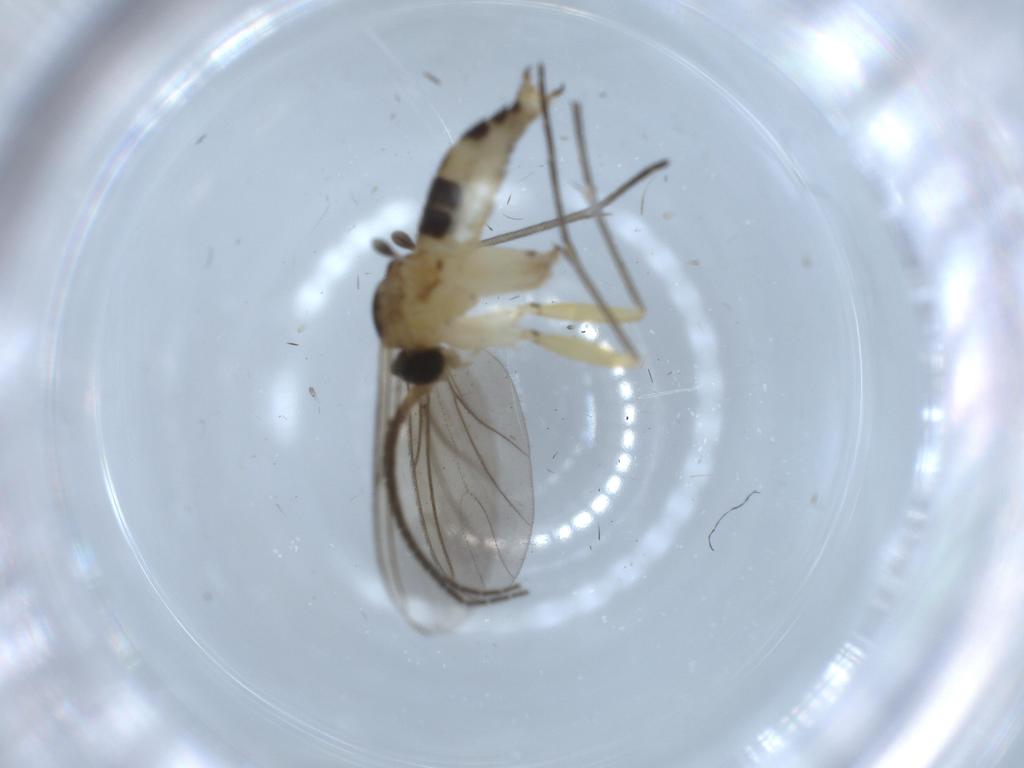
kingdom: Animalia
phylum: Arthropoda
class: Insecta
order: Diptera
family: Sciaridae
